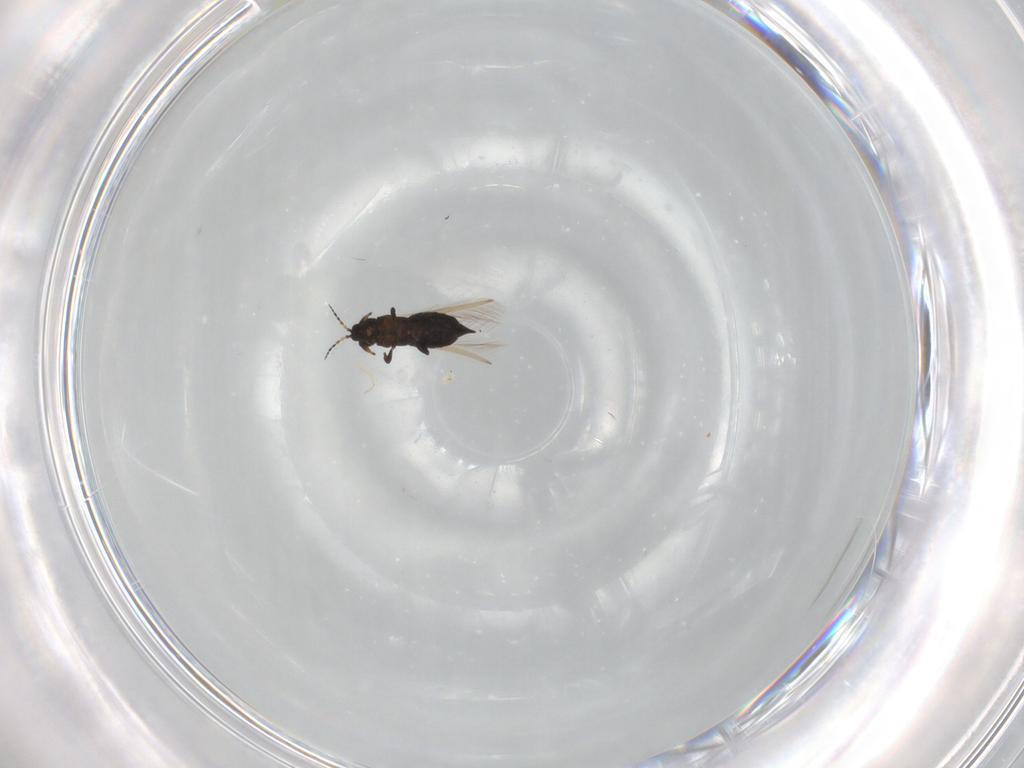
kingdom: Animalia
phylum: Arthropoda
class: Insecta
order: Thysanoptera
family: Heterothripidae
